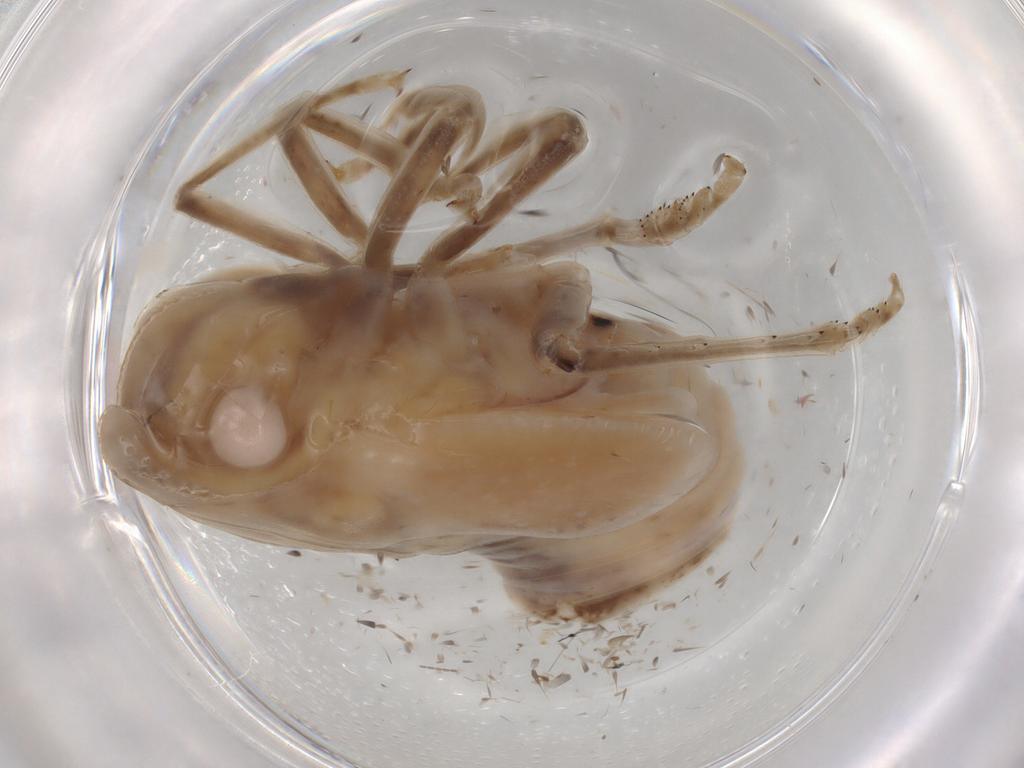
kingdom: Animalia
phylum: Arthropoda
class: Insecta
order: Hemiptera
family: Fulgoroidea_incertae_sedis
